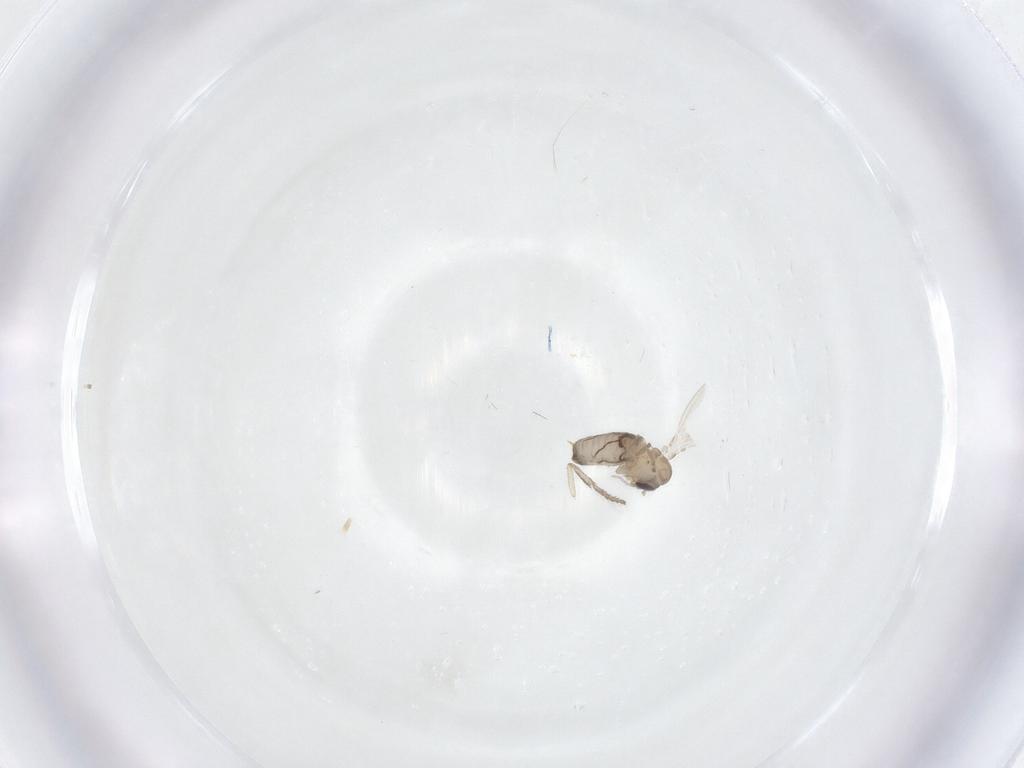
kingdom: Animalia
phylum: Arthropoda
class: Insecta
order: Diptera
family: Psychodidae
